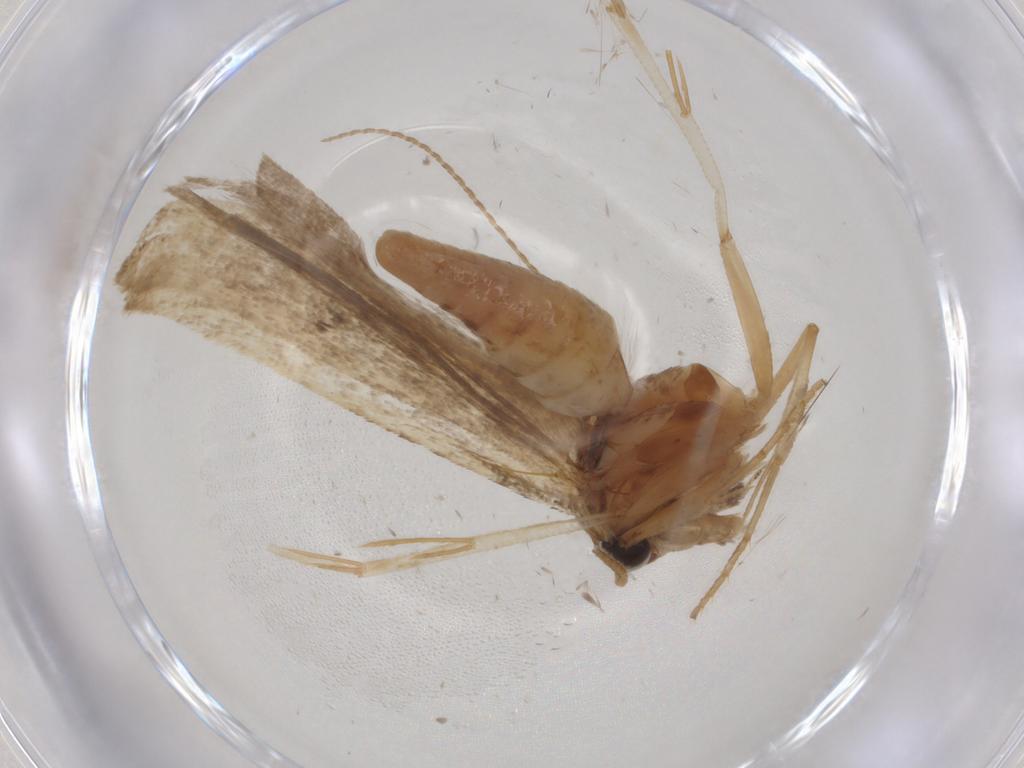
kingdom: Animalia
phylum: Arthropoda
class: Insecta
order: Lepidoptera
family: Gelechiidae
